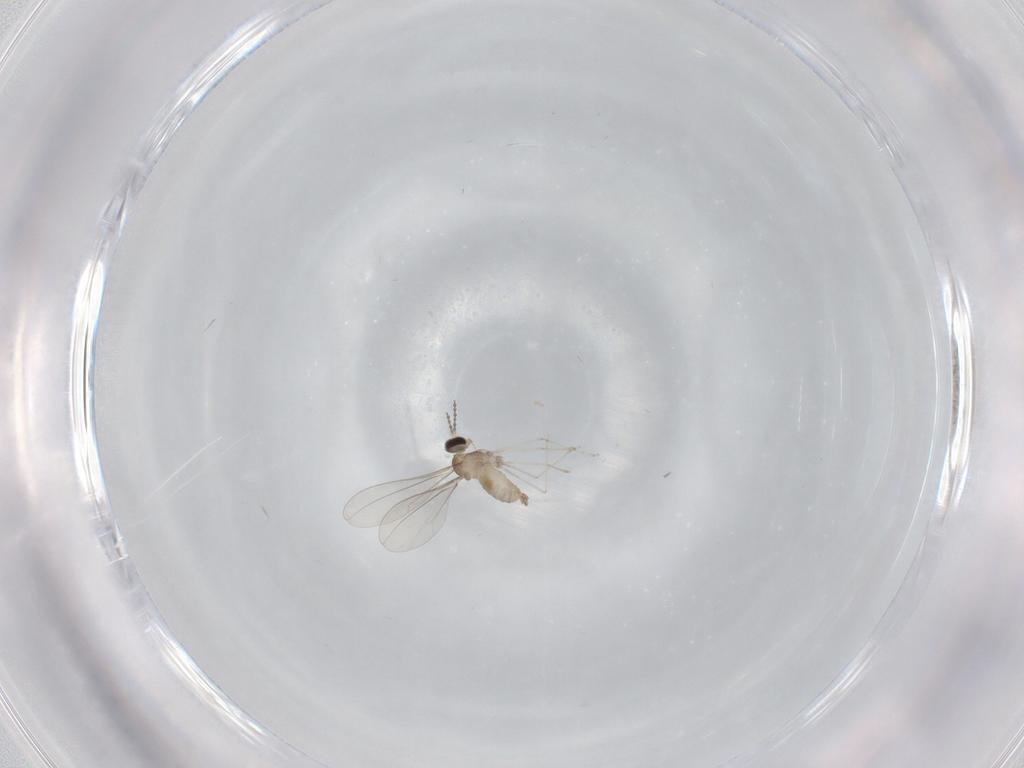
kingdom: Animalia
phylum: Arthropoda
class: Insecta
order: Diptera
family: Cecidomyiidae
